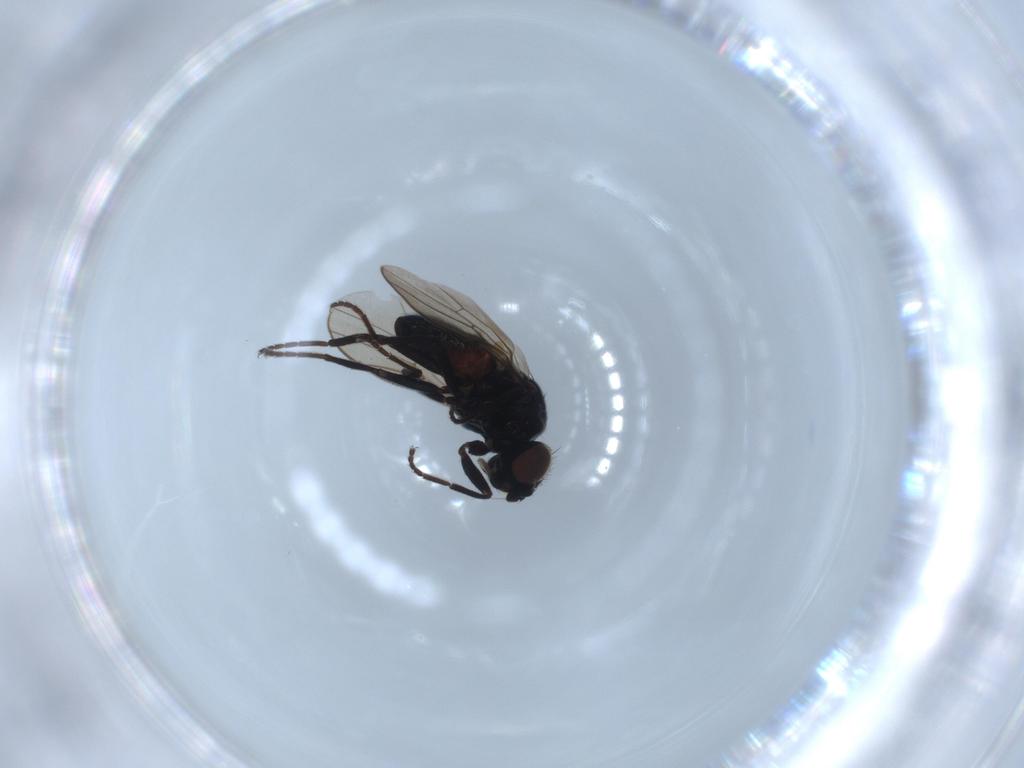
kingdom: Animalia
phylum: Arthropoda
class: Insecta
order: Diptera
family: Chloropidae
